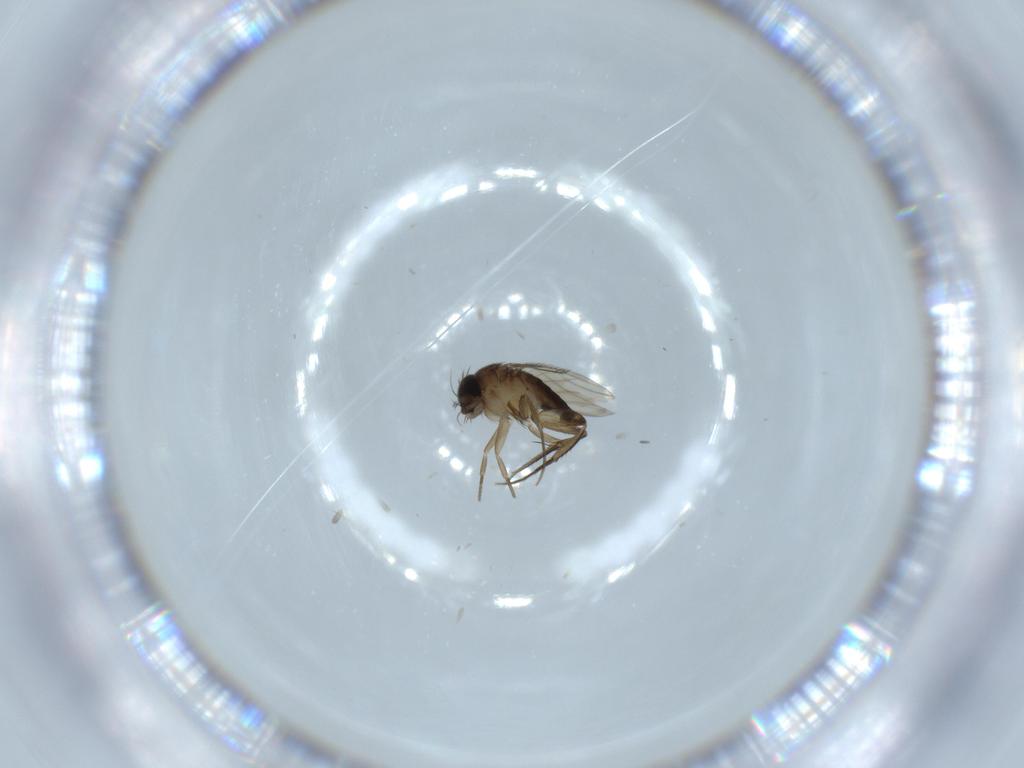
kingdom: Animalia
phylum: Arthropoda
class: Insecta
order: Diptera
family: Phoridae
